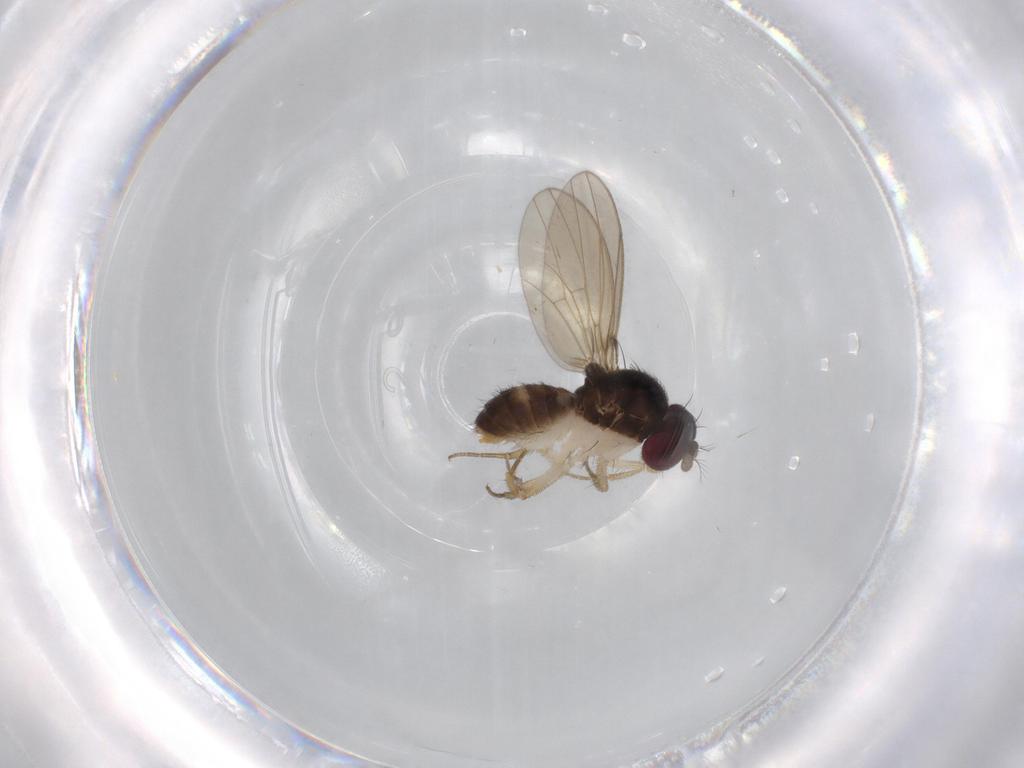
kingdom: Animalia
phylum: Arthropoda
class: Insecta
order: Diptera
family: Drosophilidae
